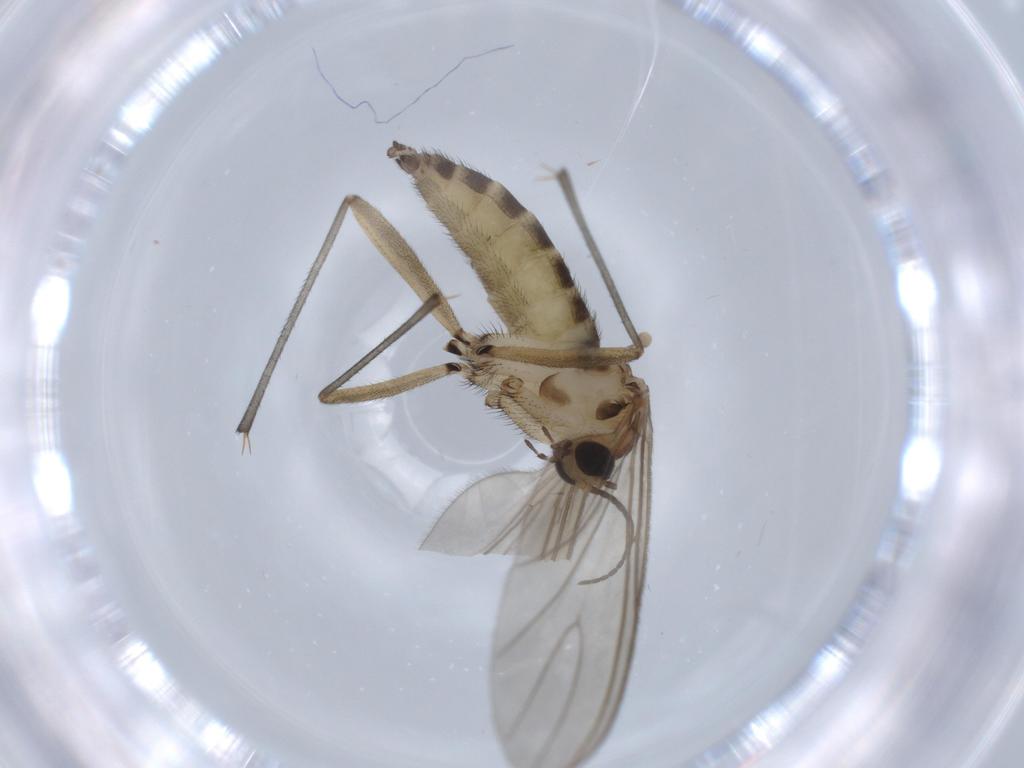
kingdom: Animalia
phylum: Arthropoda
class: Insecta
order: Diptera
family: Sciaridae
